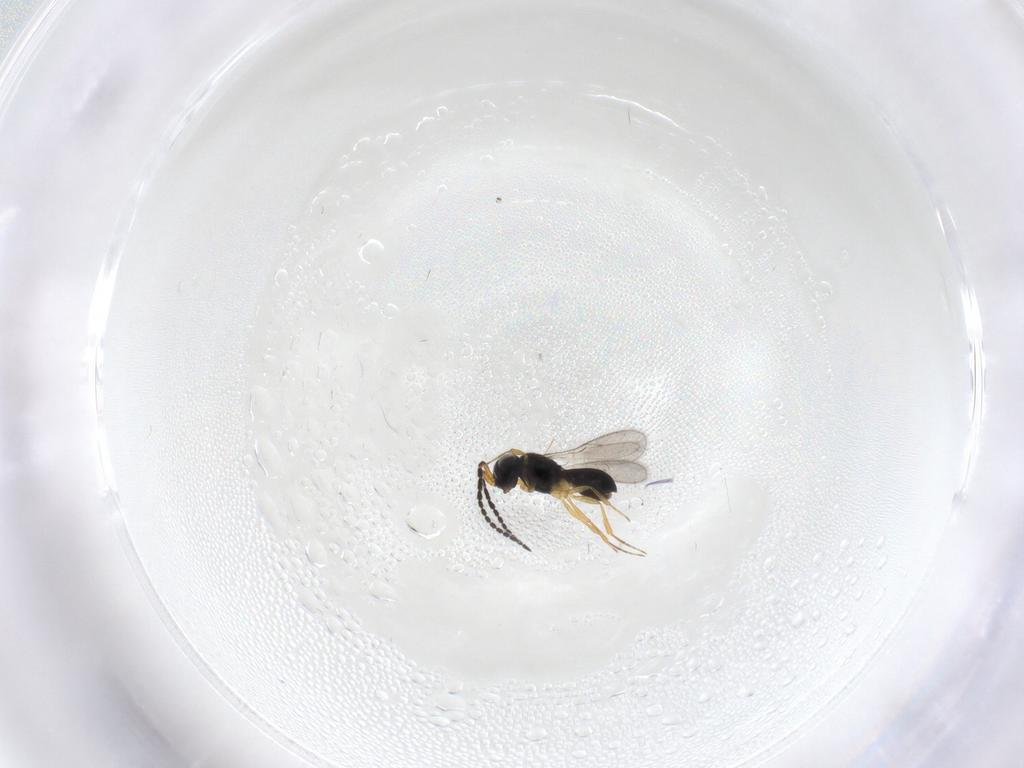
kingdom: Animalia
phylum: Arthropoda
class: Insecta
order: Hymenoptera
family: Scelionidae
